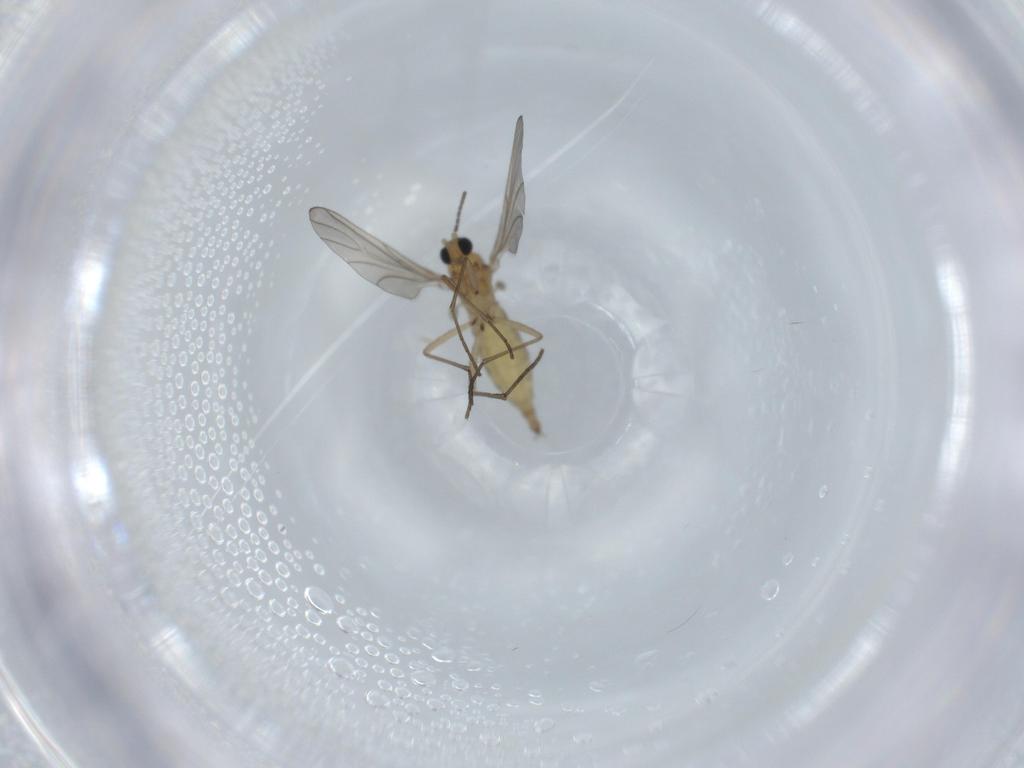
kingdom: Animalia
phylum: Arthropoda
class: Insecta
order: Diptera
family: Sciaridae
